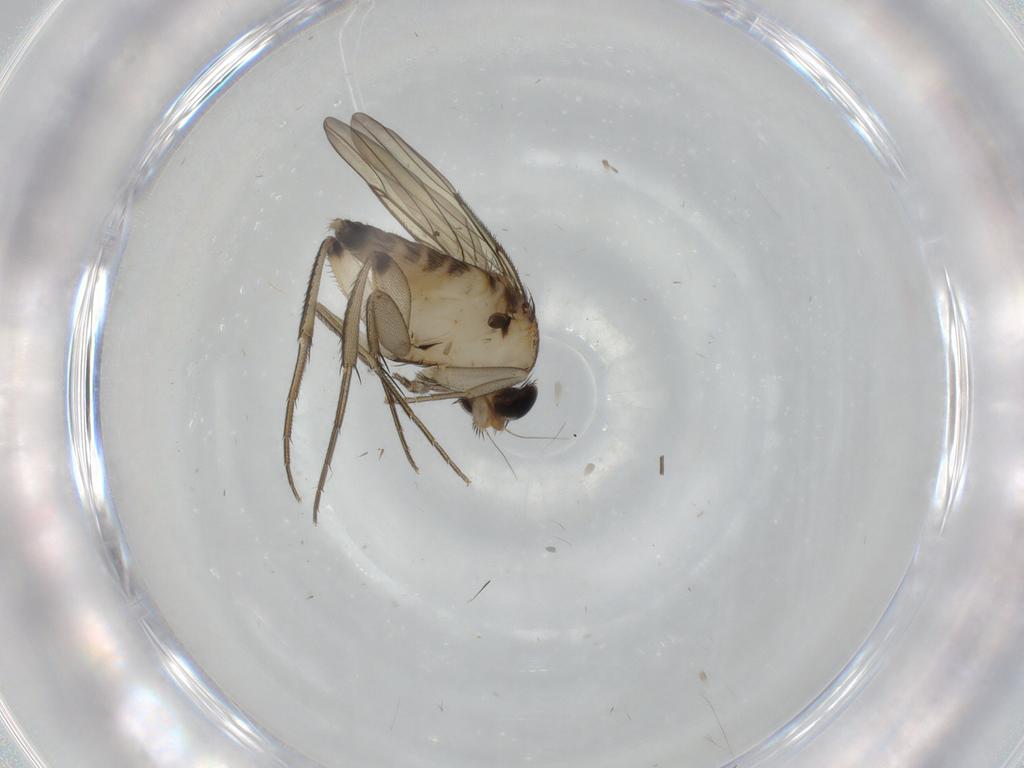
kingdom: Animalia
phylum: Arthropoda
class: Insecta
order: Diptera
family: Phoridae
